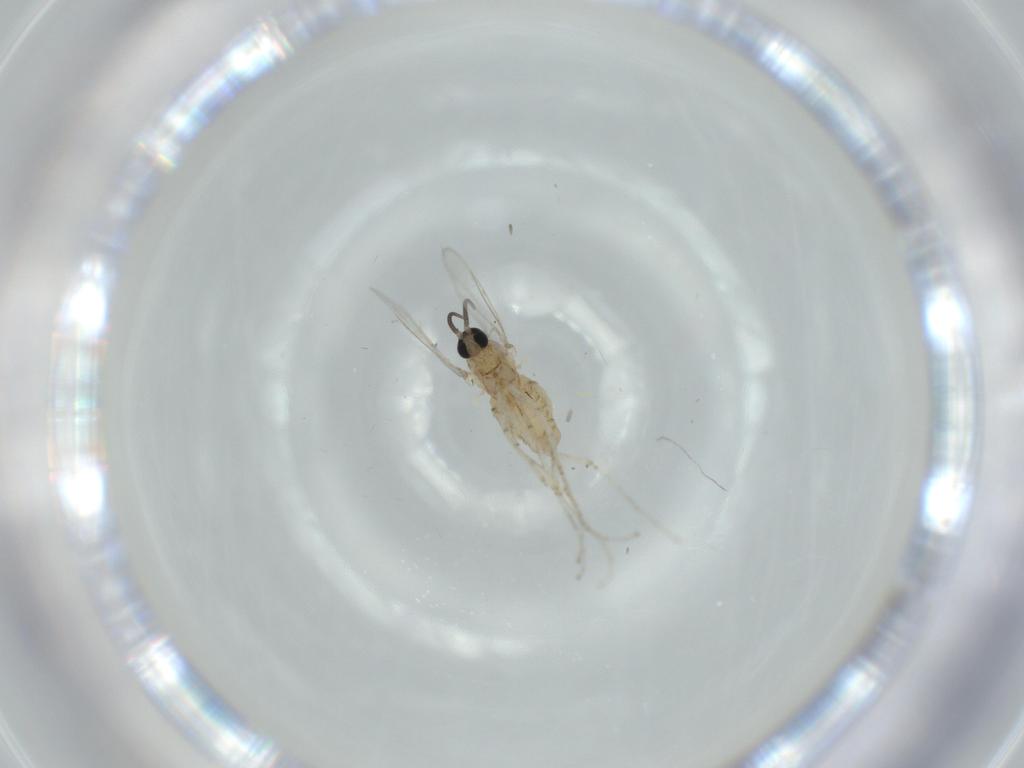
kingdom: Animalia
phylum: Arthropoda
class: Insecta
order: Diptera
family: Cecidomyiidae
